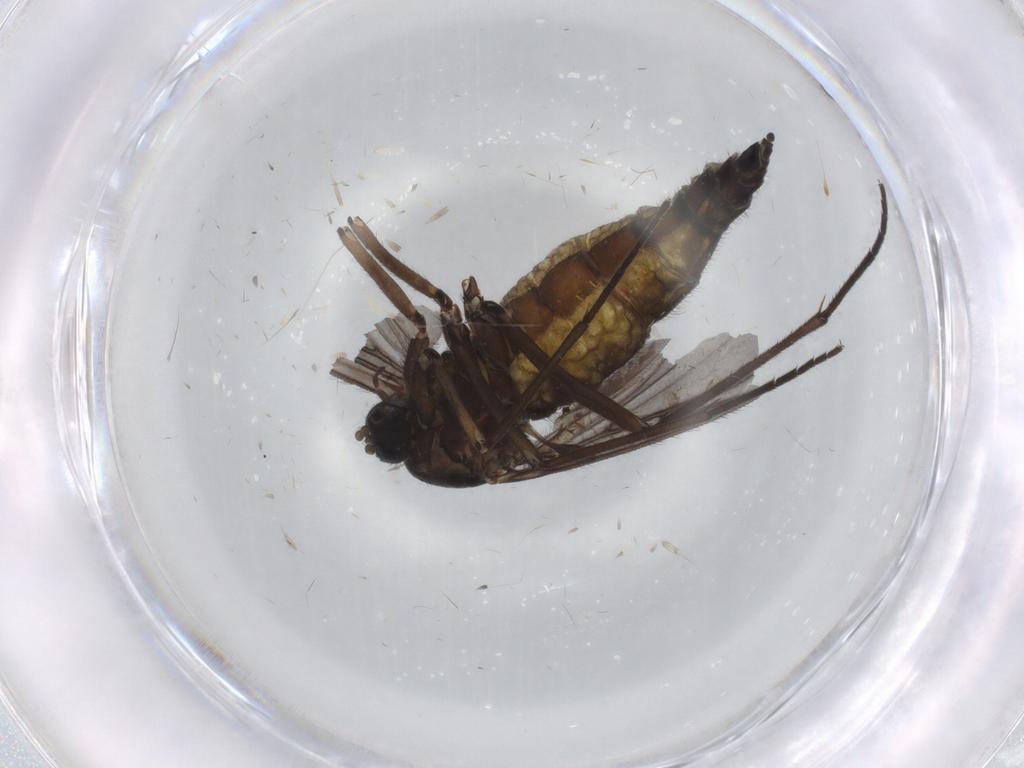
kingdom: Animalia
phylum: Arthropoda
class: Insecta
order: Diptera
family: Sciaridae
